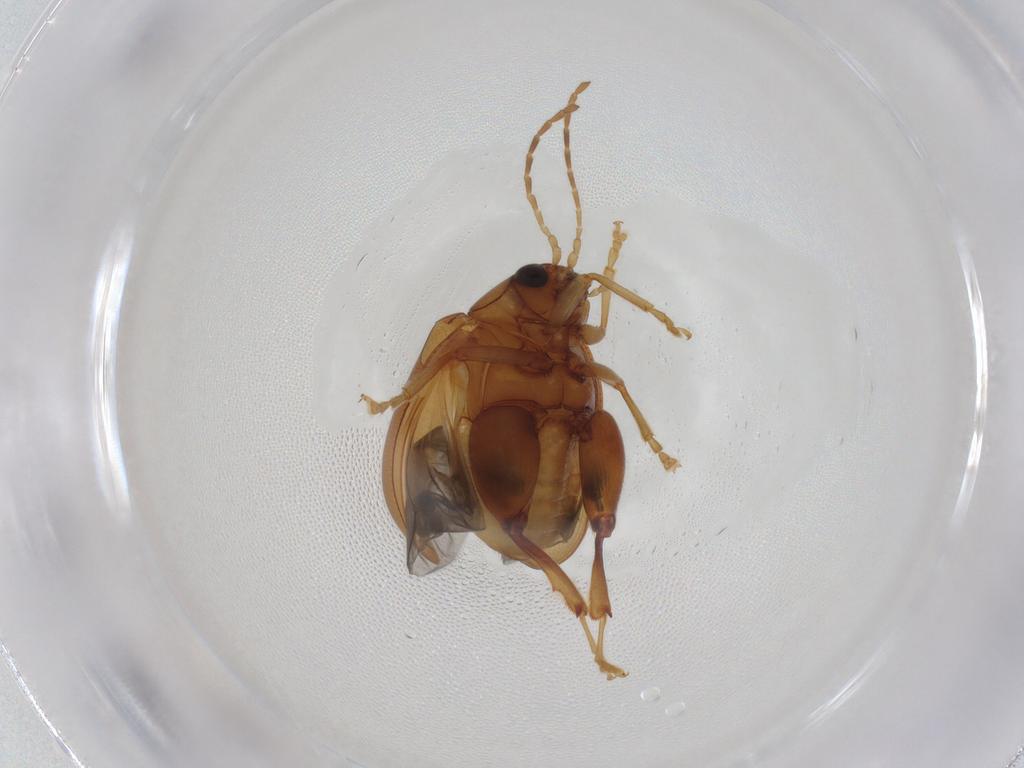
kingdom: Animalia
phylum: Arthropoda
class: Insecta
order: Coleoptera
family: Chrysomelidae
